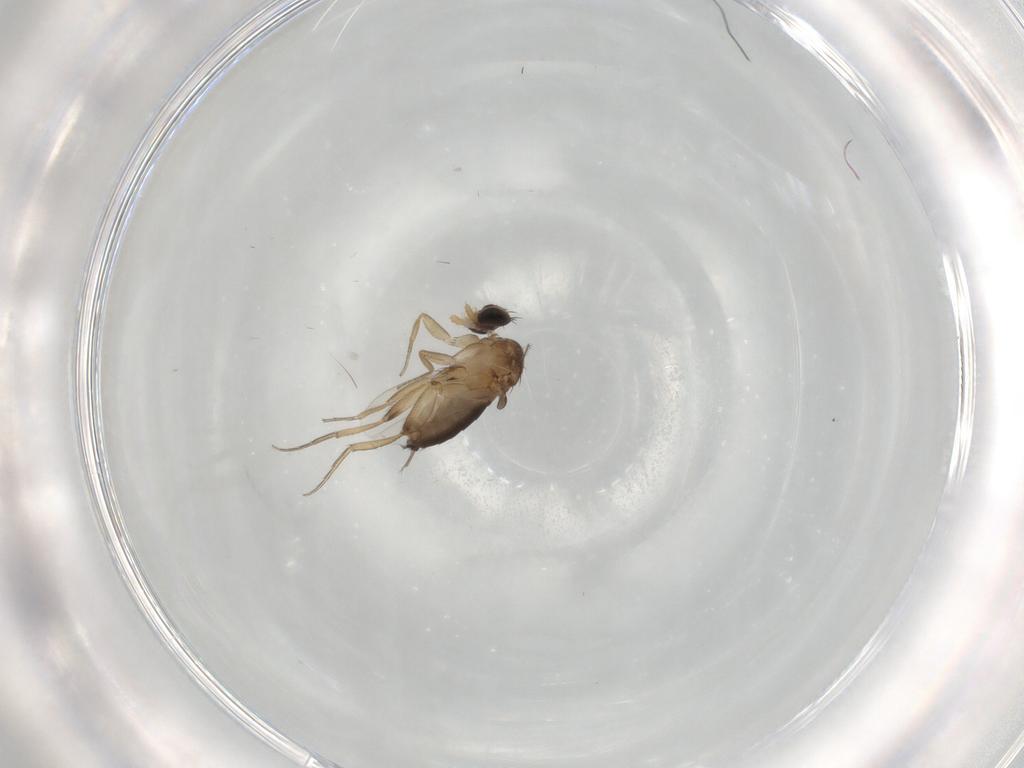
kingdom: Animalia
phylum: Arthropoda
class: Insecta
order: Diptera
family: Phoridae
